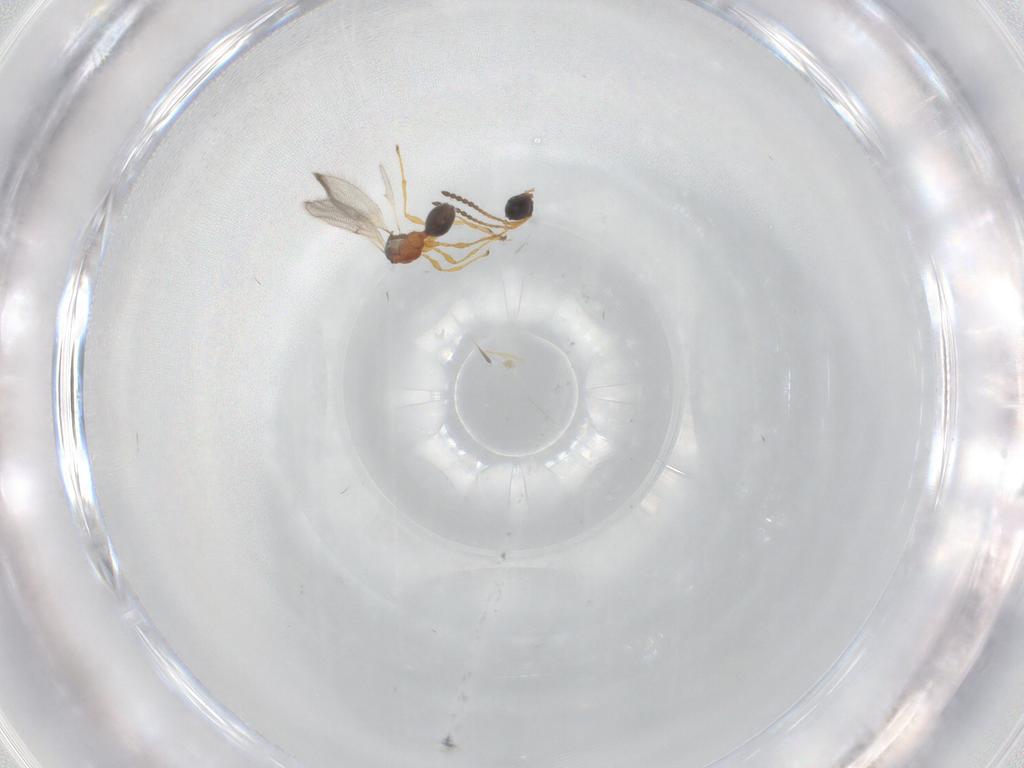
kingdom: Animalia
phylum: Arthropoda
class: Insecta
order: Hymenoptera
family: Diapriidae
